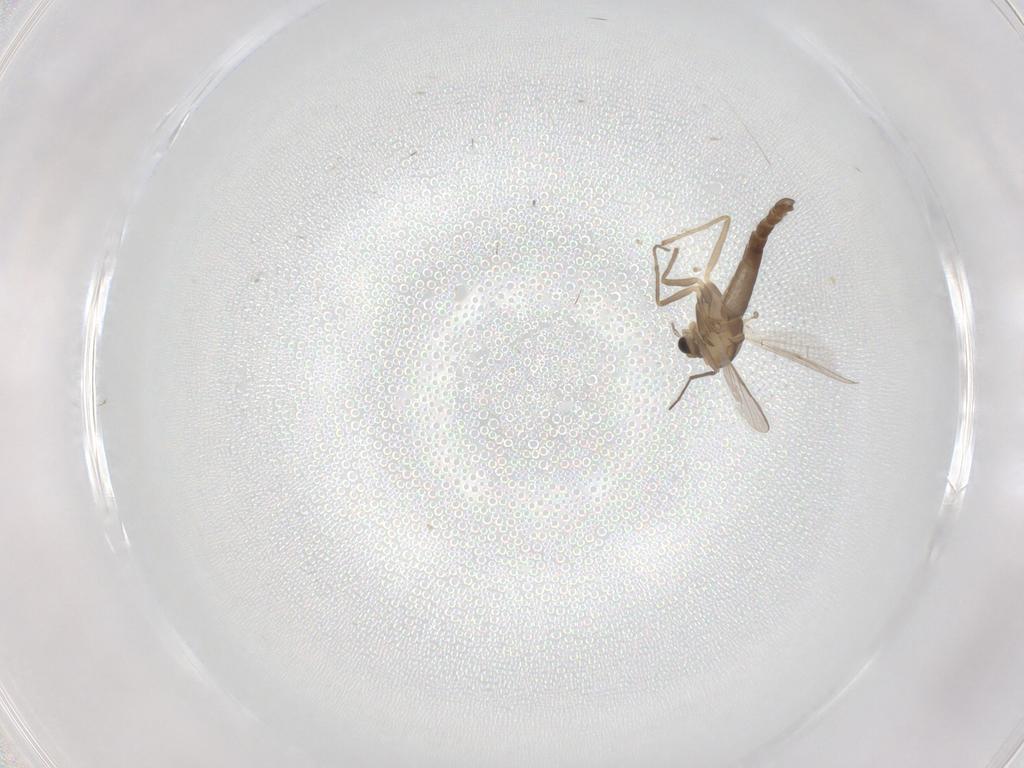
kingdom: Animalia
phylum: Arthropoda
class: Insecta
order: Diptera
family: Chironomidae
